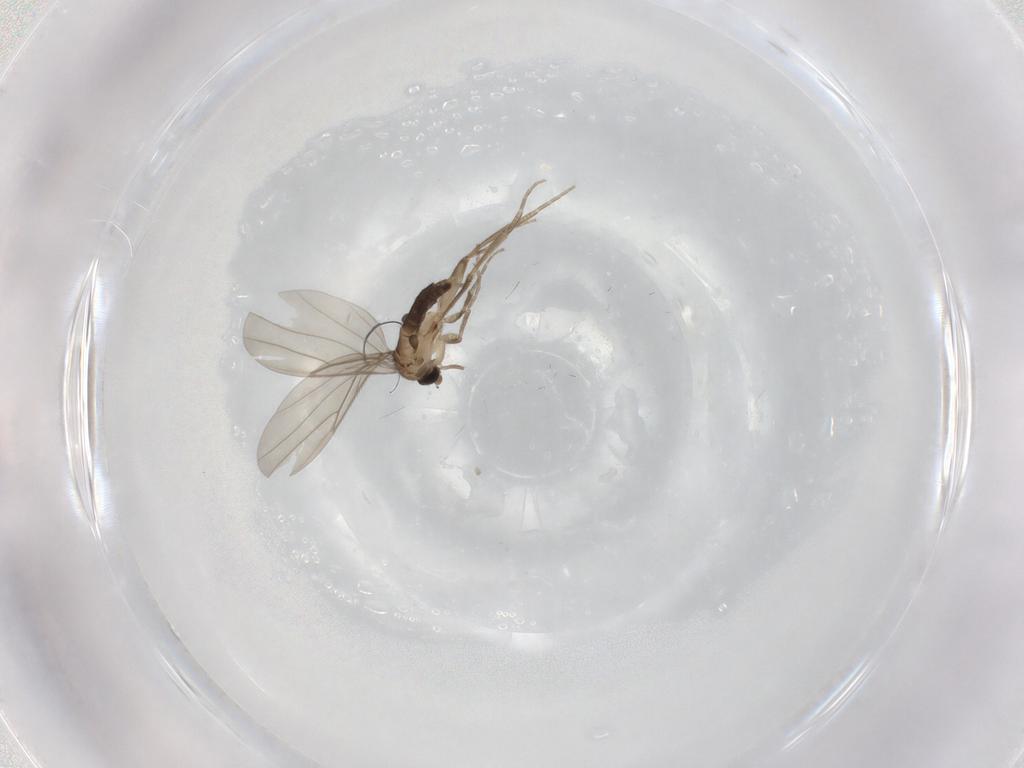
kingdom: Animalia
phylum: Arthropoda
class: Insecta
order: Diptera
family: Phoridae
